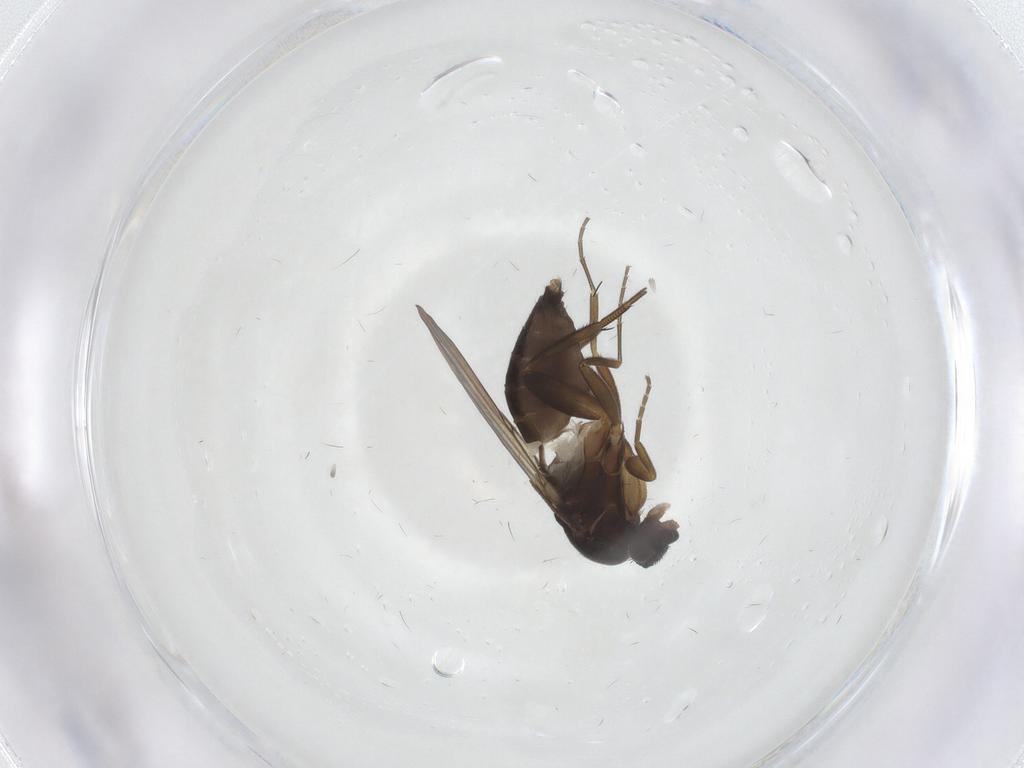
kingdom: Animalia
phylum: Arthropoda
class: Insecta
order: Diptera
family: Phoridae
